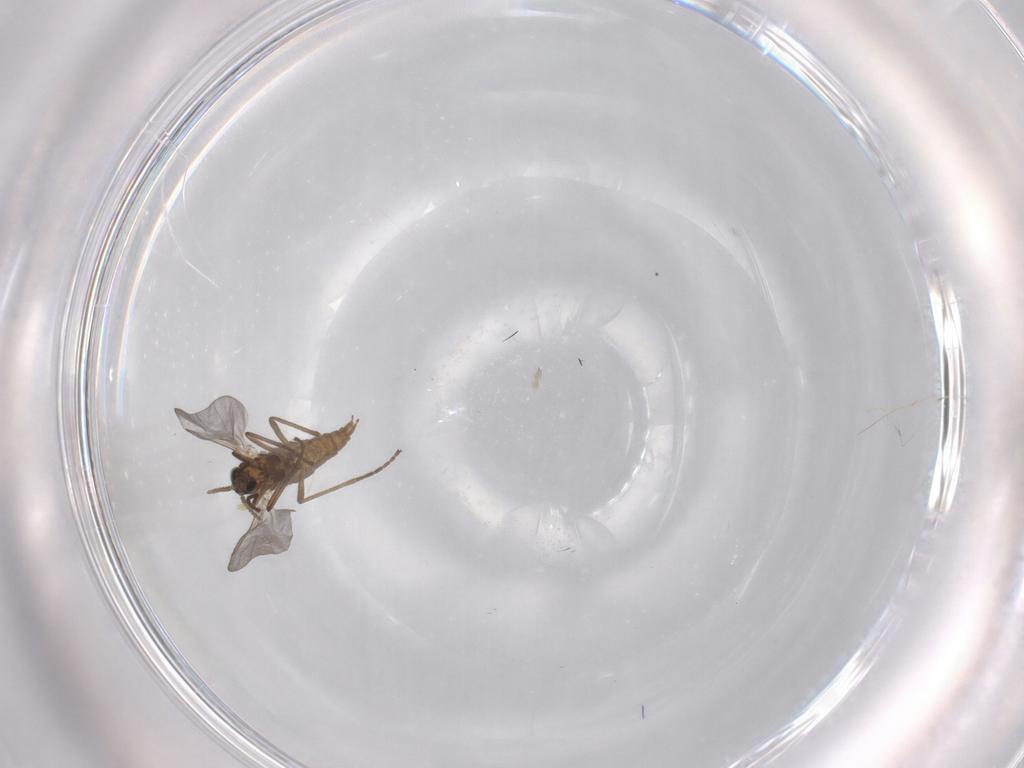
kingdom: Animalia
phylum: Arthropoda
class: Insecta
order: Diptera
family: Cecidomyiidae
